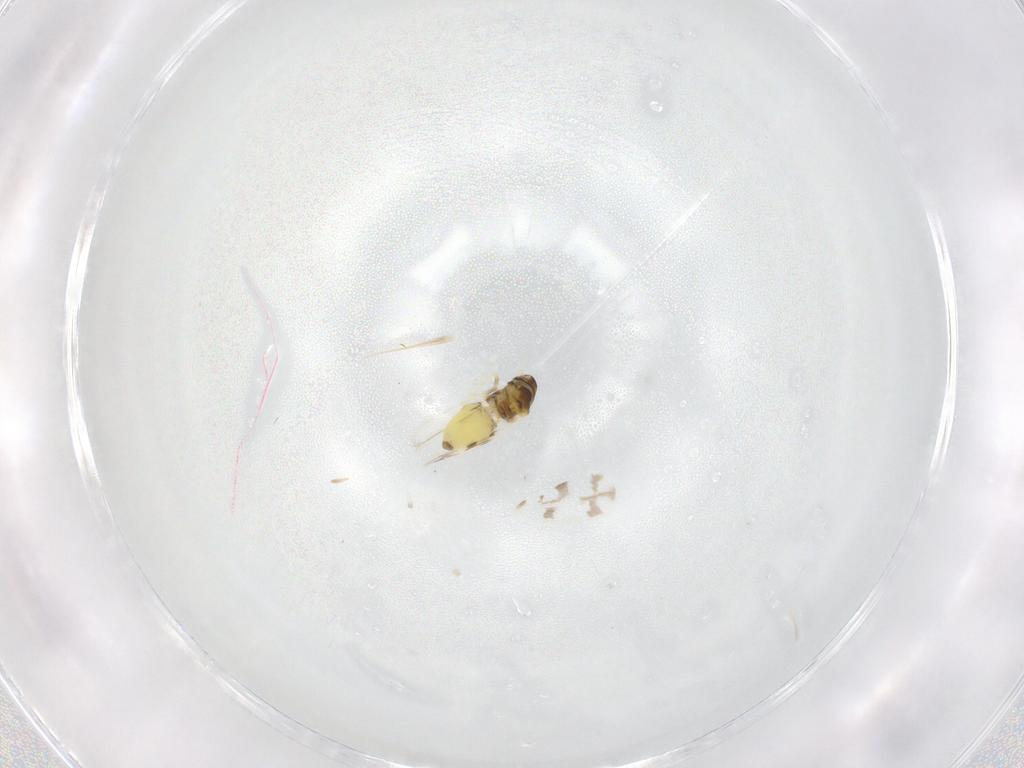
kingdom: Animalia
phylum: Arthropoda
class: Insecta
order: Hemiptera
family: Aleyrodidae
